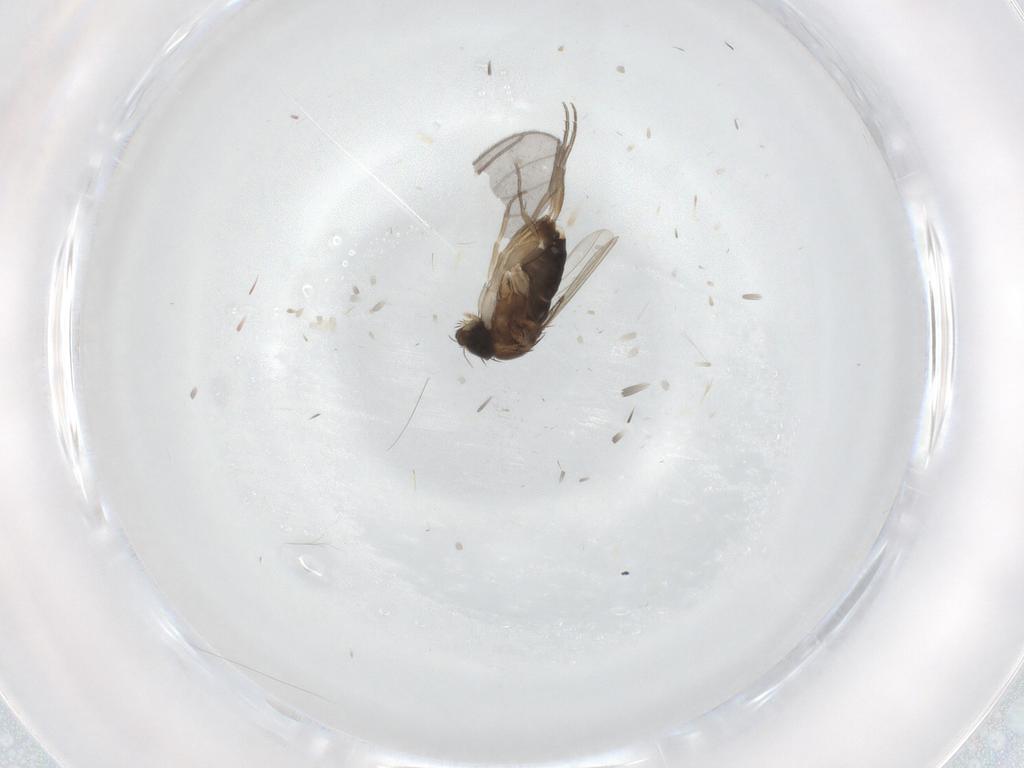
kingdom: Animalia
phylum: Arthropoda
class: Insecta
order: Diptera
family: Phoridae
